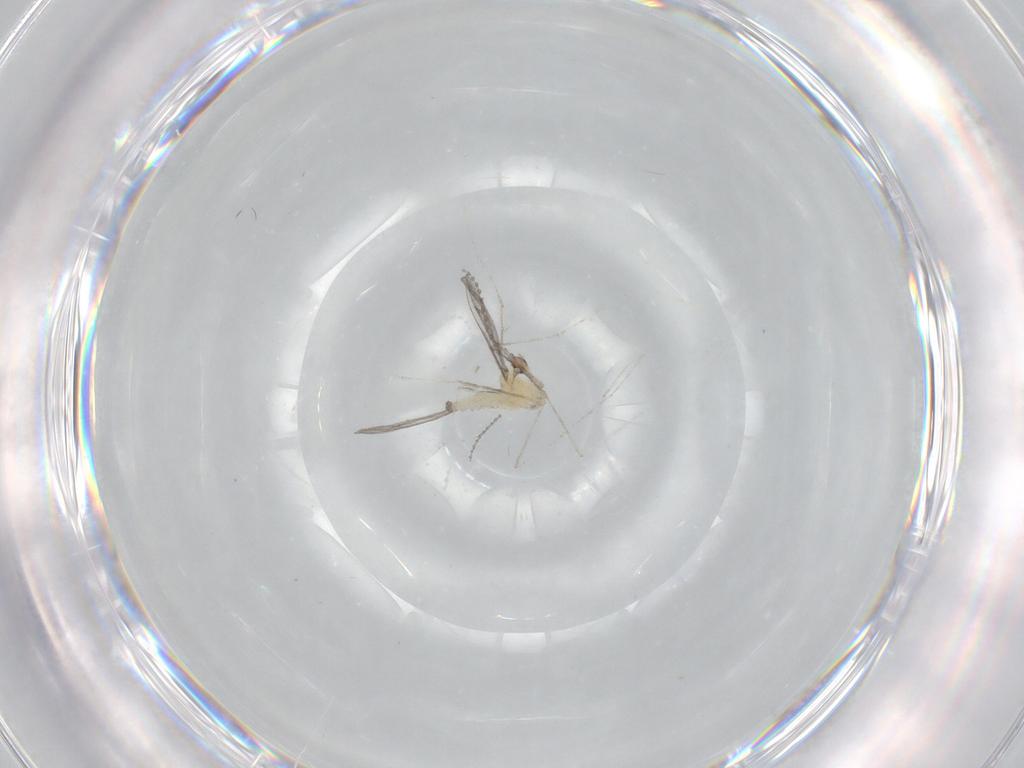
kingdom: Animalia
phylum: Arthropoda
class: Insecta
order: Diptera
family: Cecidomyiidae
